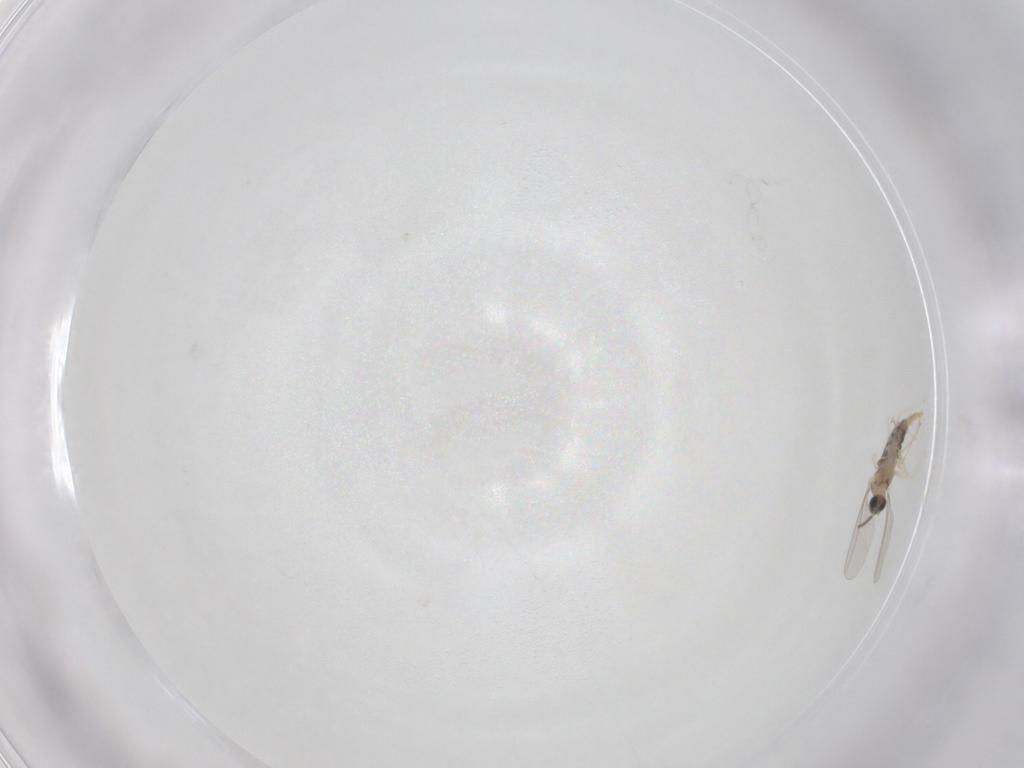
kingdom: Animalia
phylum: Arthropoda
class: Insecta
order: Diptera
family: Cecidomyiidae
